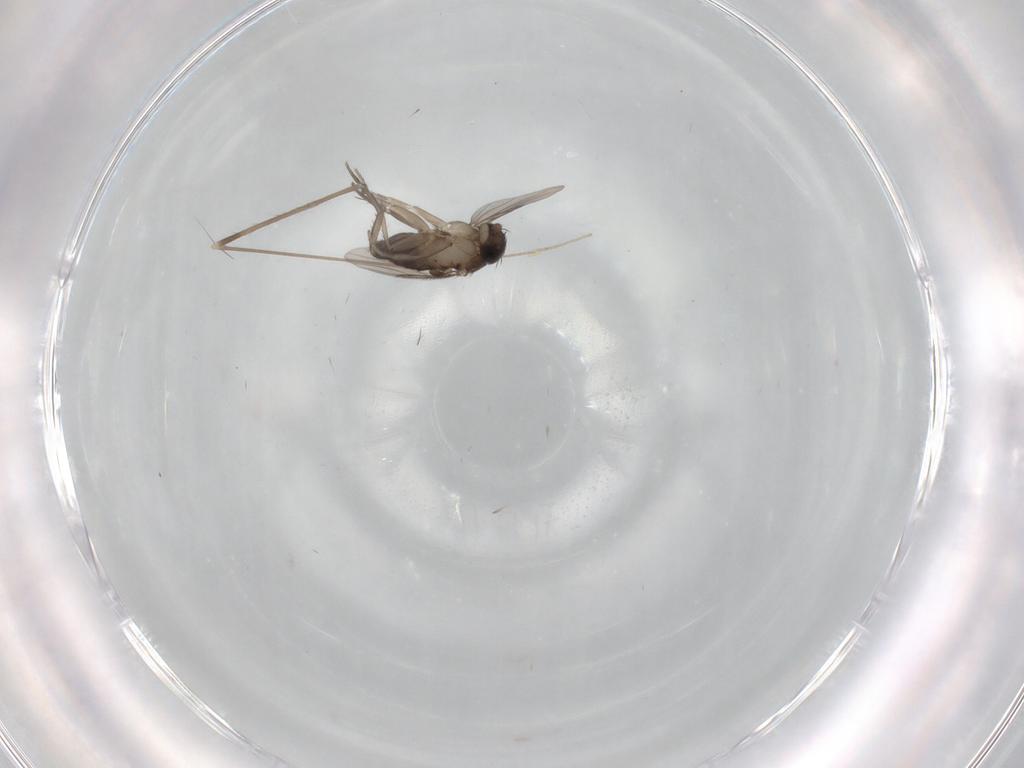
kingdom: Animalia
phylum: Arthropoda
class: Insecta
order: Diptera
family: Phoridae
